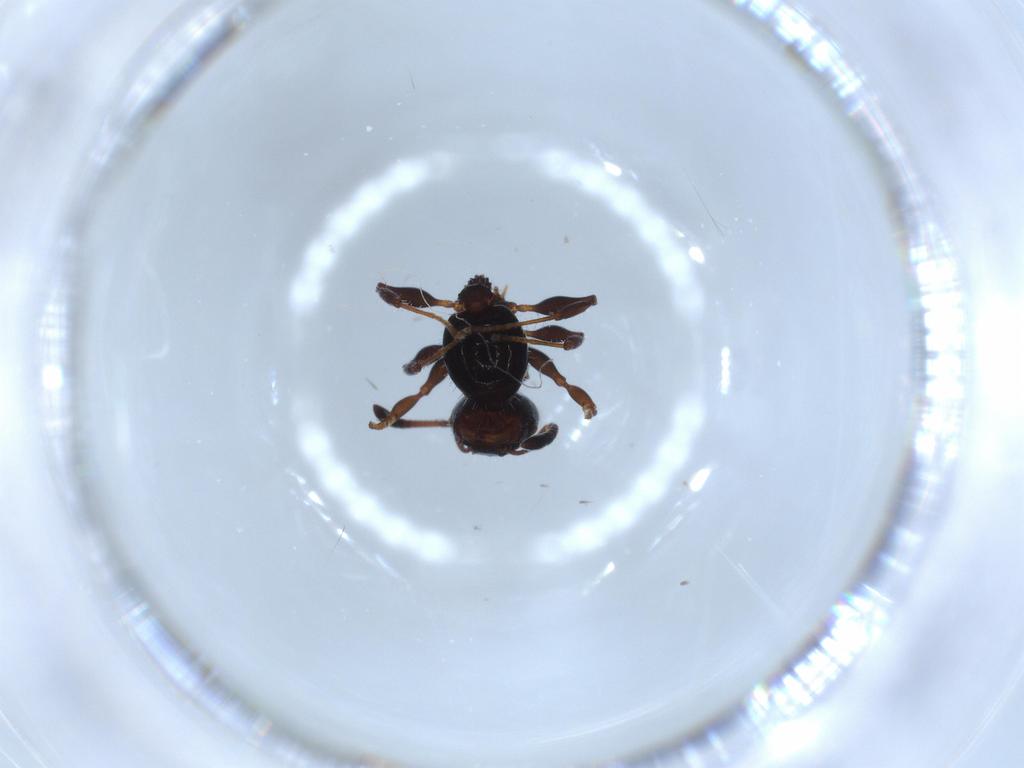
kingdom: Animalia
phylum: Arthropoda
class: Insecta
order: Hymenoptera
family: Formicidae
